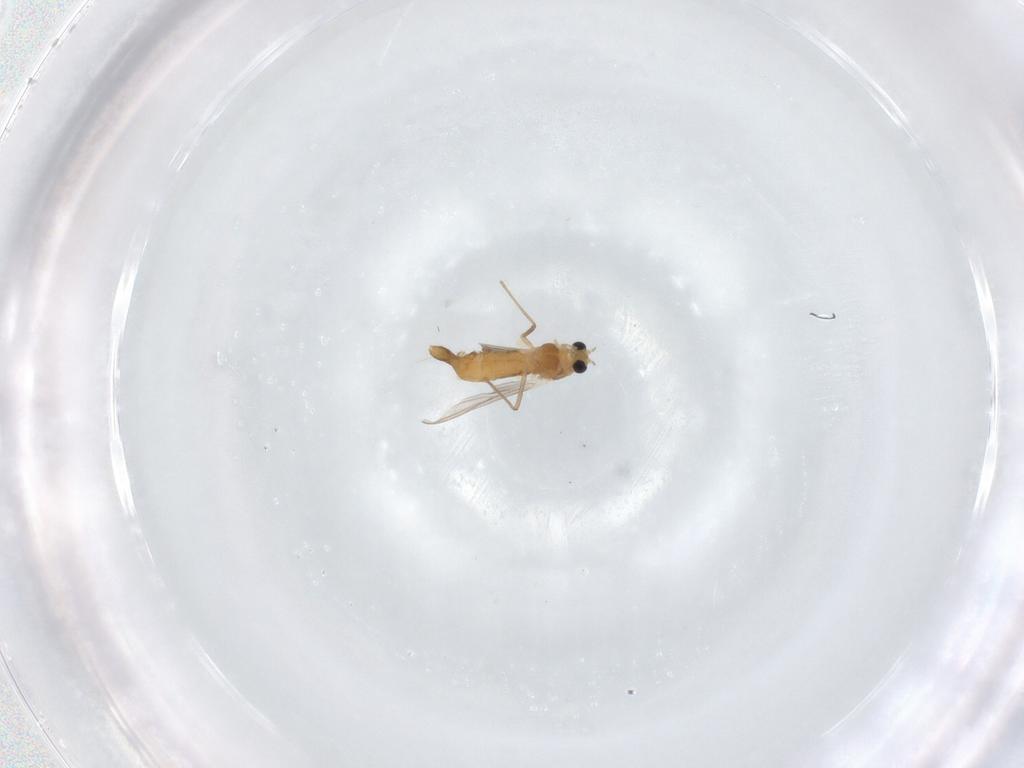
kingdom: Animalia
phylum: Arthropoda
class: Insecta
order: Diptera
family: Chironomidae
